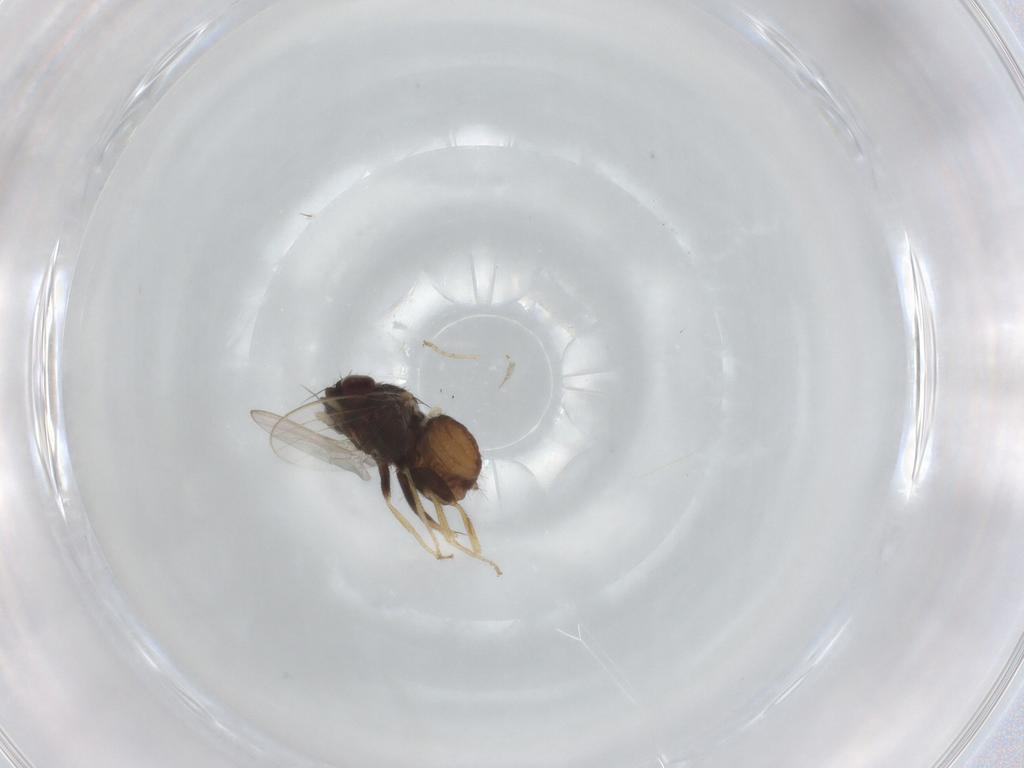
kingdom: Animalia
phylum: Arthropoda
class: Insecta
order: Diptera
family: Milichiidae
